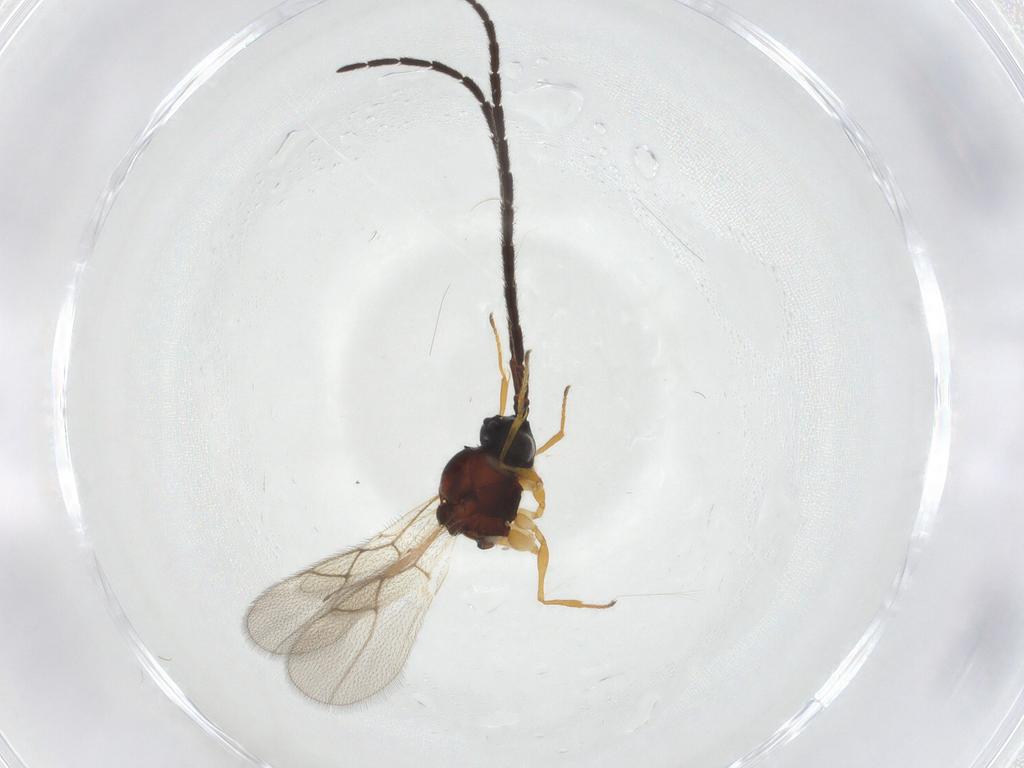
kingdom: Animalia
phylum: Arthropoda
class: Insecta
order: Hymenoptera
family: Figitidae
